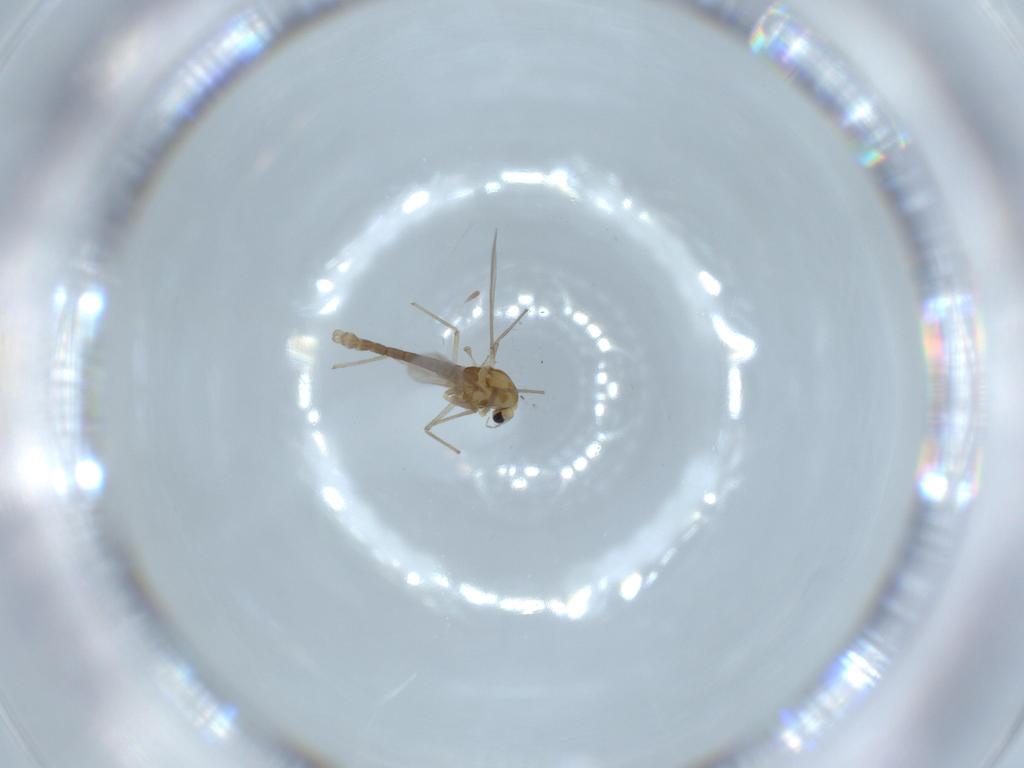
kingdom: Animalia
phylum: Arthropoda
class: Insecta
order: Diptera
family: Chironomidae
